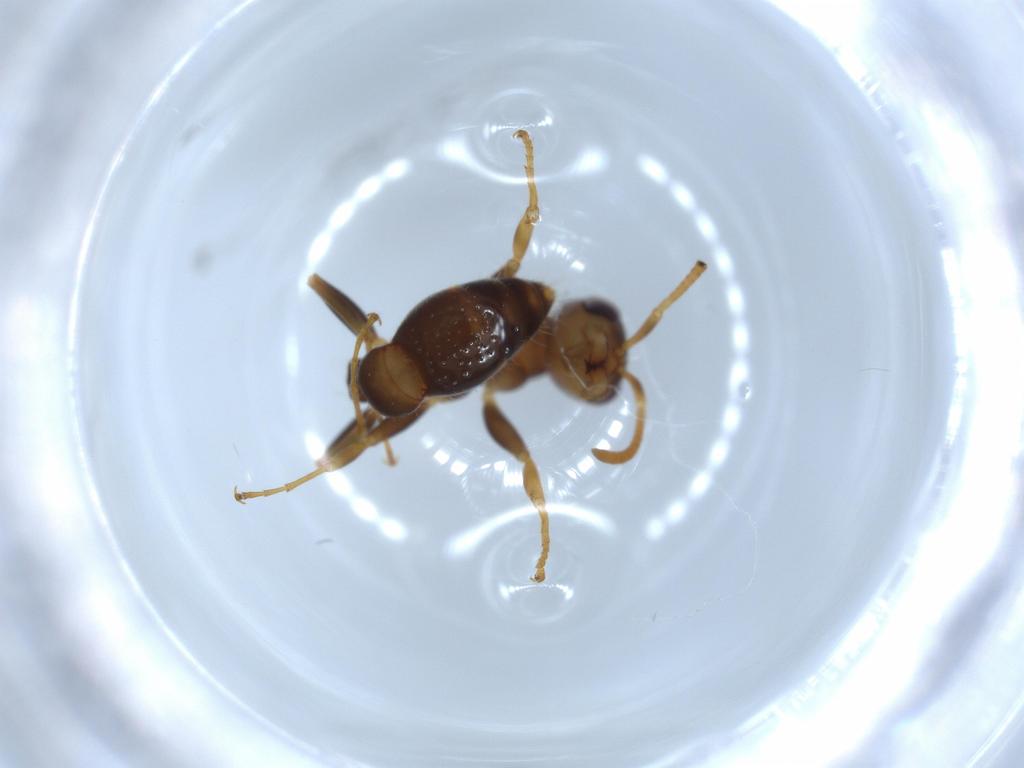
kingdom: Animalia
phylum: Arthropoda
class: Insecta
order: Hymenoptera
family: Formicidae
